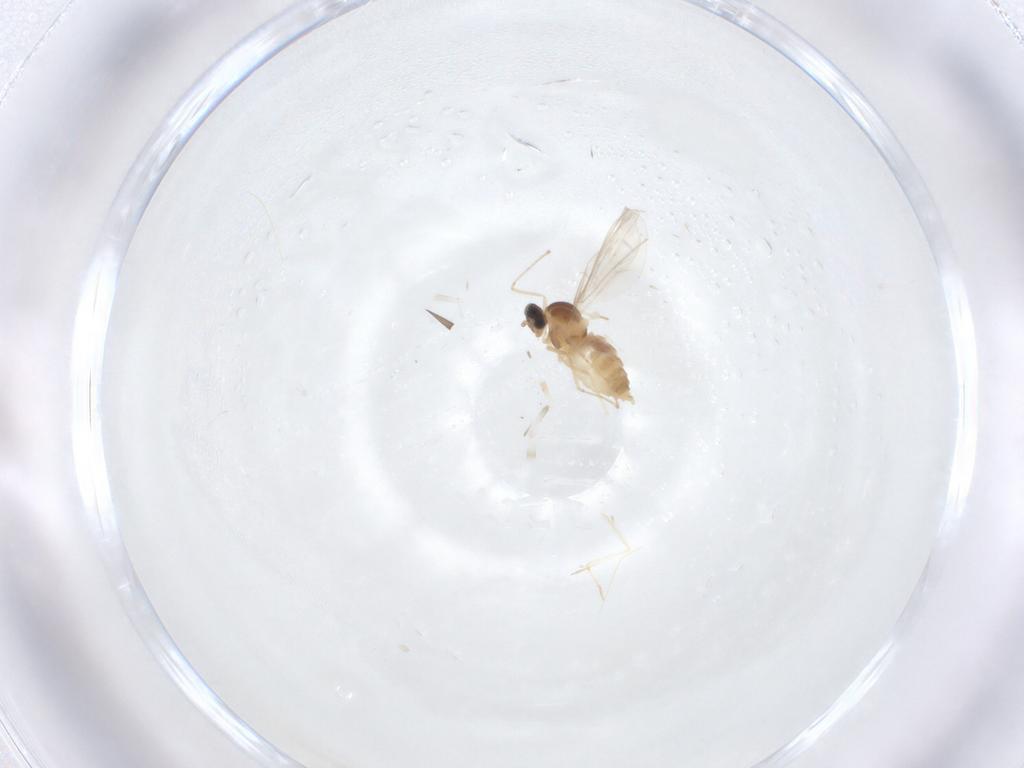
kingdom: Animalia
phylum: Arthropoda
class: Insecta
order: Diptera
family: Cecidomyiidae
